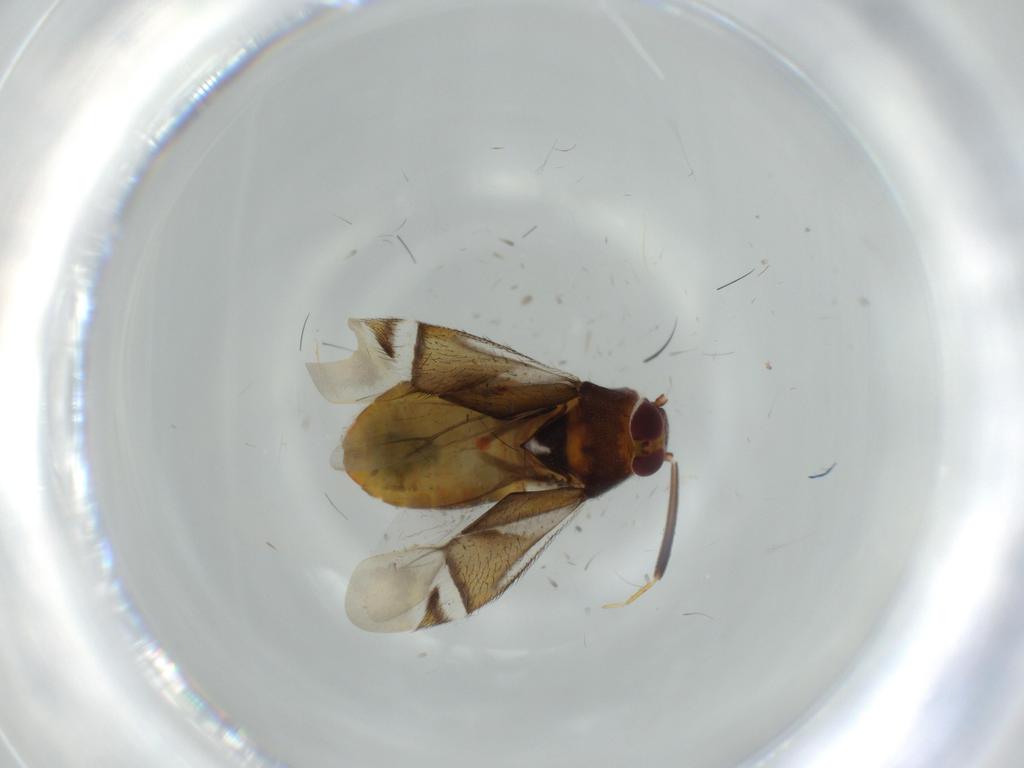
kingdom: Animalia
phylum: Arthropoda
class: Insecta
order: Hemiptera
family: Miridae
